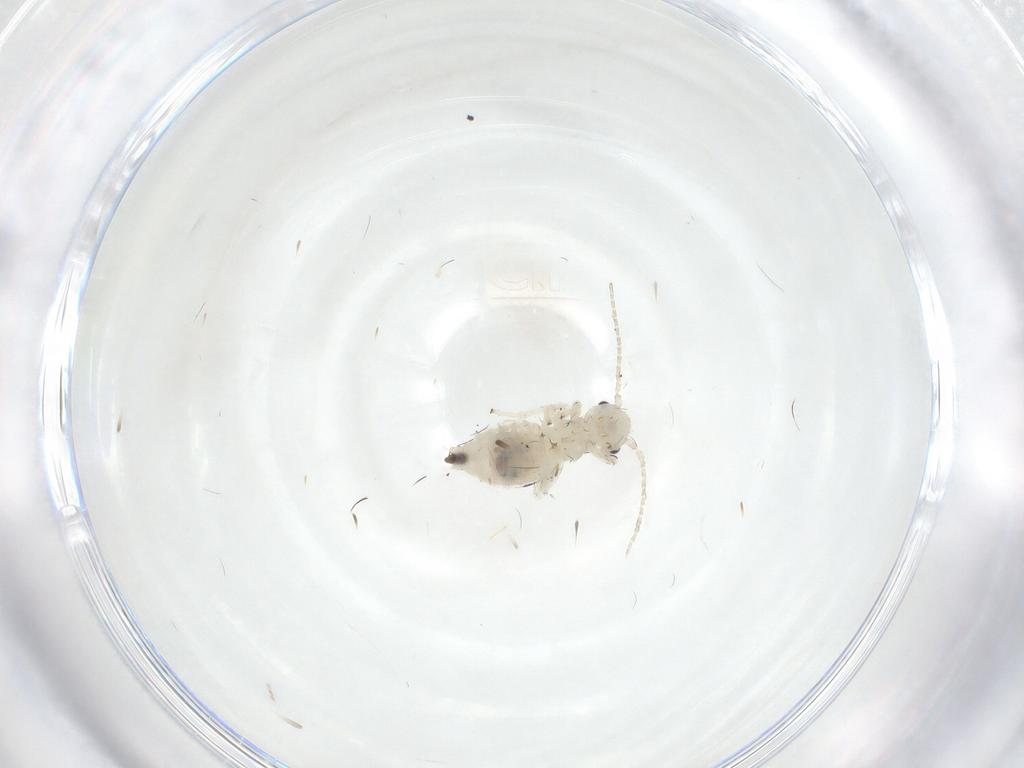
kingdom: Animalia
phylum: Arthropoda
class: Insecta
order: Psocodea
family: Amphipsocidae
